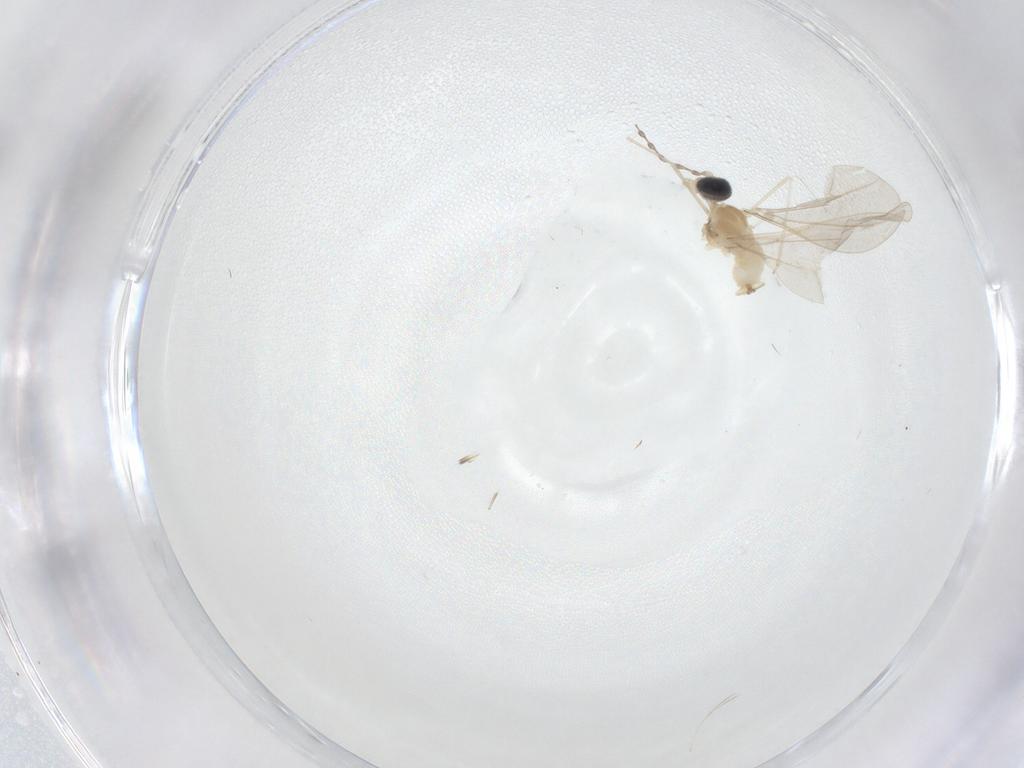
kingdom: Animalia
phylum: Arthropoda
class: Insecta
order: Diptera
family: Cecidomyiidae
